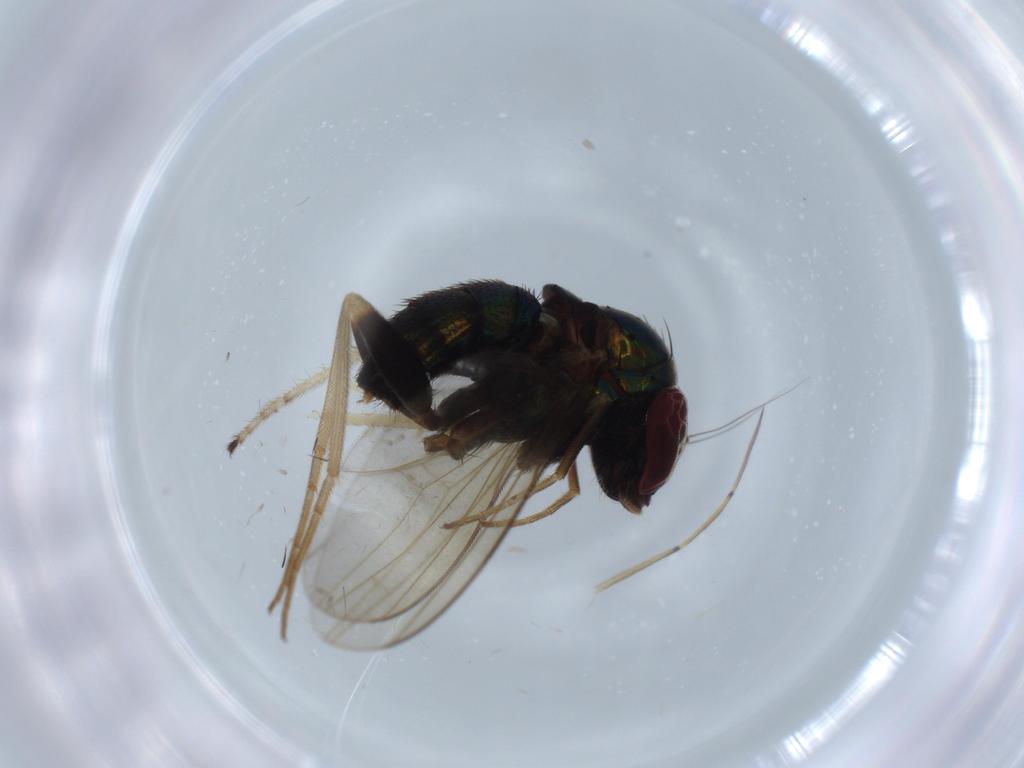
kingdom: Animalia
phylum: Arthropoda
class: Insecta
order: Diptera
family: Dolichopodidae
